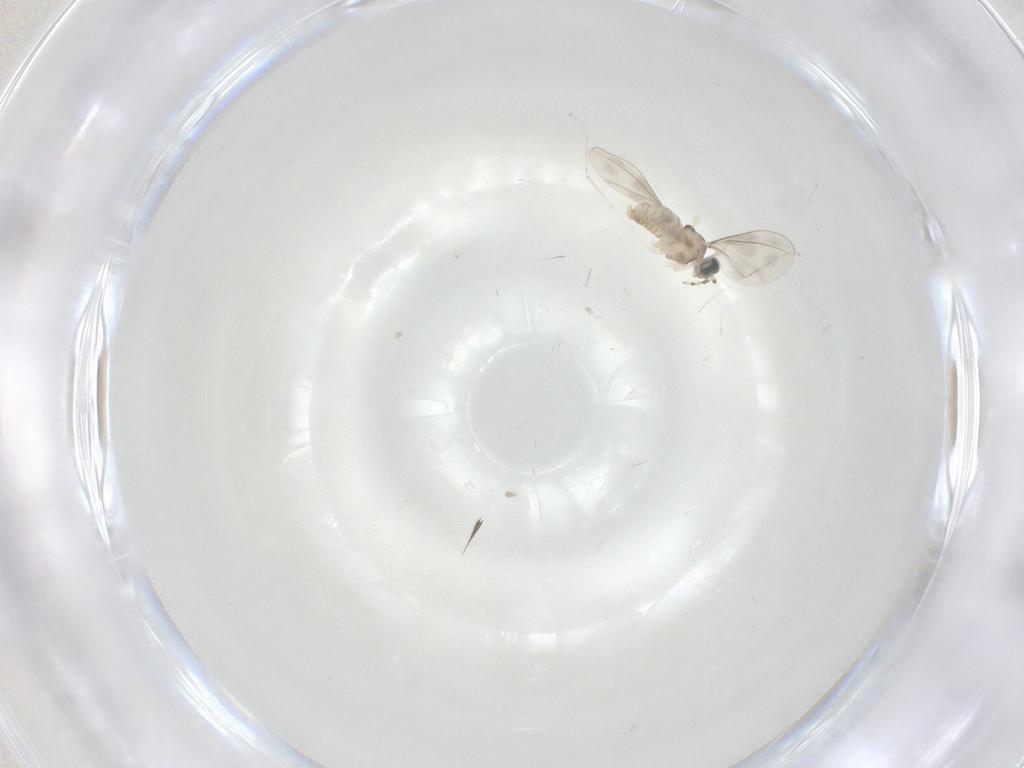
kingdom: Animalia
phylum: Arthropoda
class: Insecta
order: Diptera
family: Cecidomyiidae
